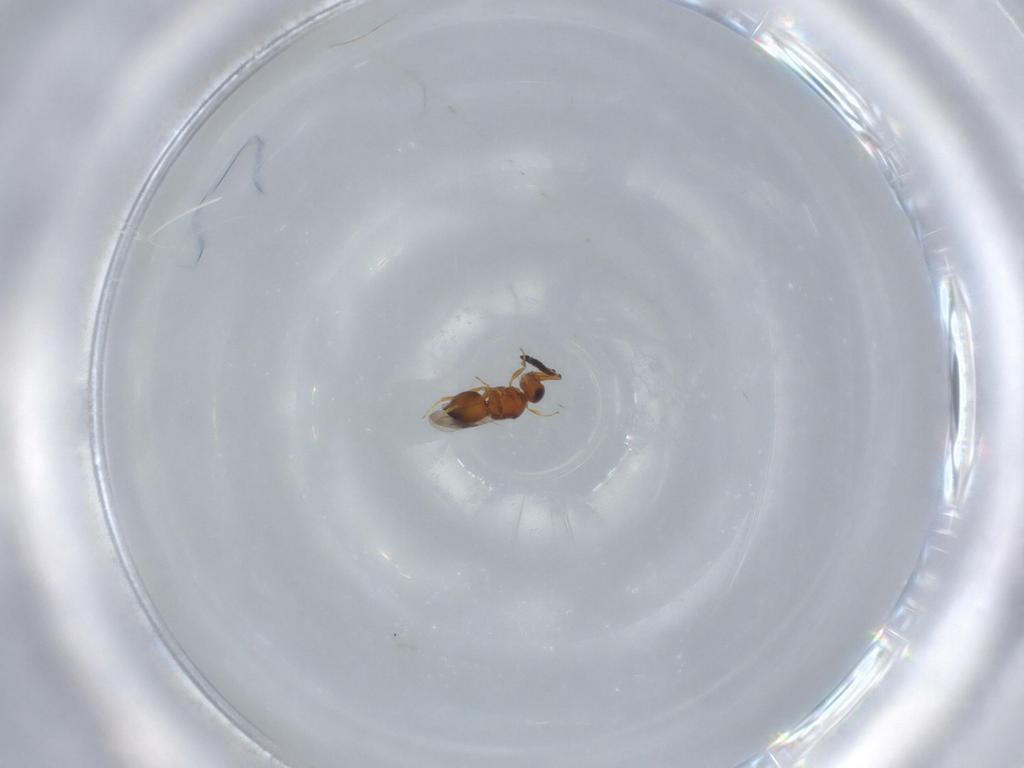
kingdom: Animalia
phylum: Arthropoda
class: Insecta
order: Hymenoptera
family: Ceraphronidae
